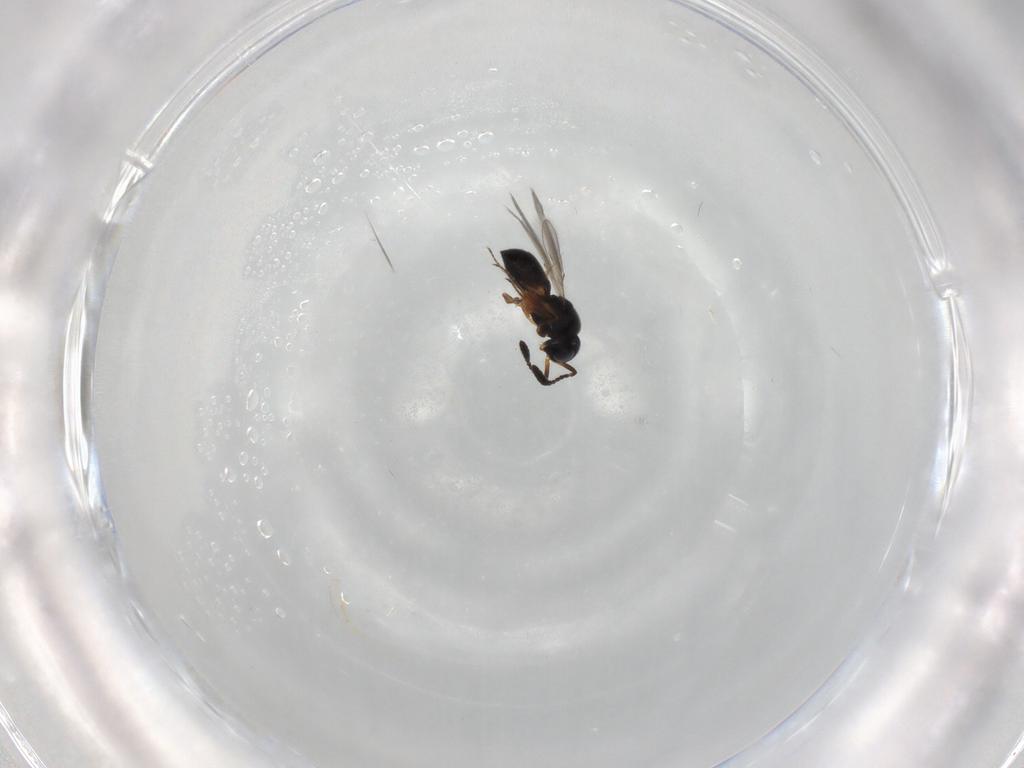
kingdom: Animalia
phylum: Arthropoda
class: Insecta
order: Hymenoptera
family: Scelionidae
